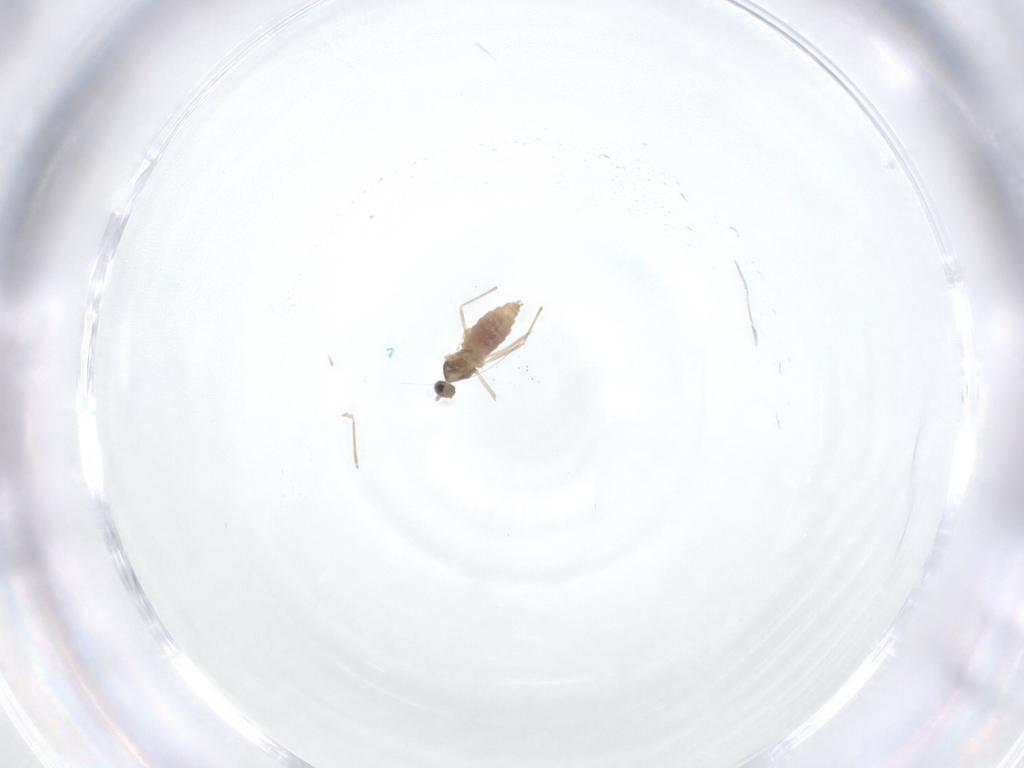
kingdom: Animalia
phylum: Arthropoda
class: Insecta
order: Diptera
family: Cecidomyiidae
